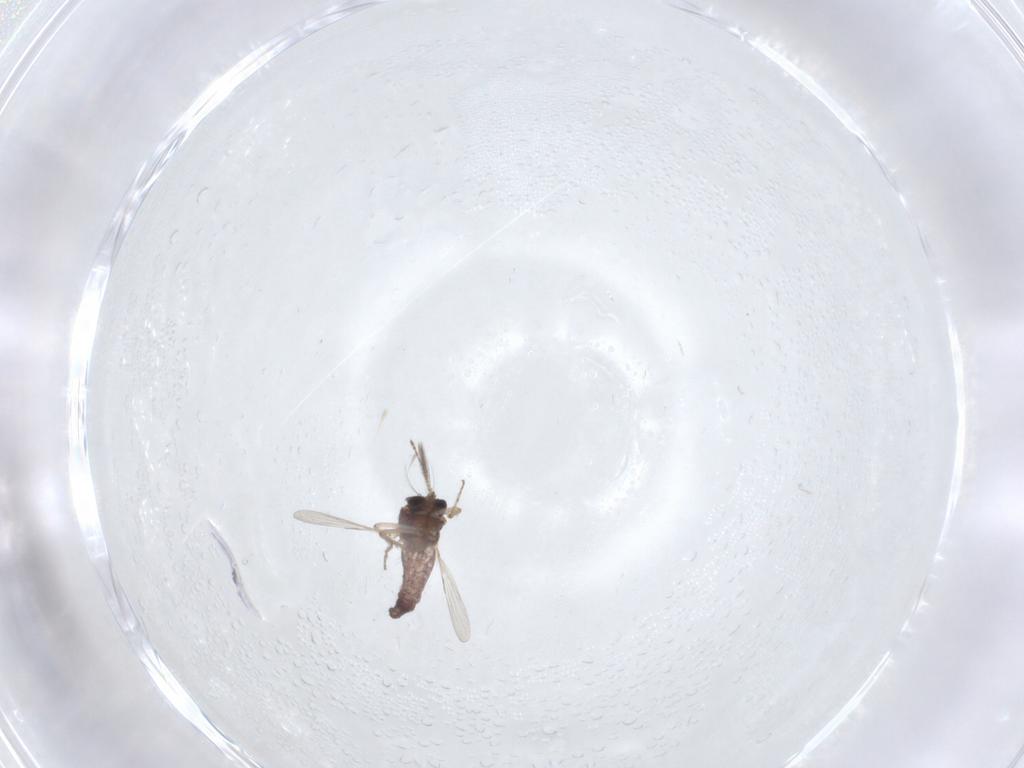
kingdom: Animalia
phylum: Arthropoda
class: Insecta
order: Diptera
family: Ceratopogonidae
